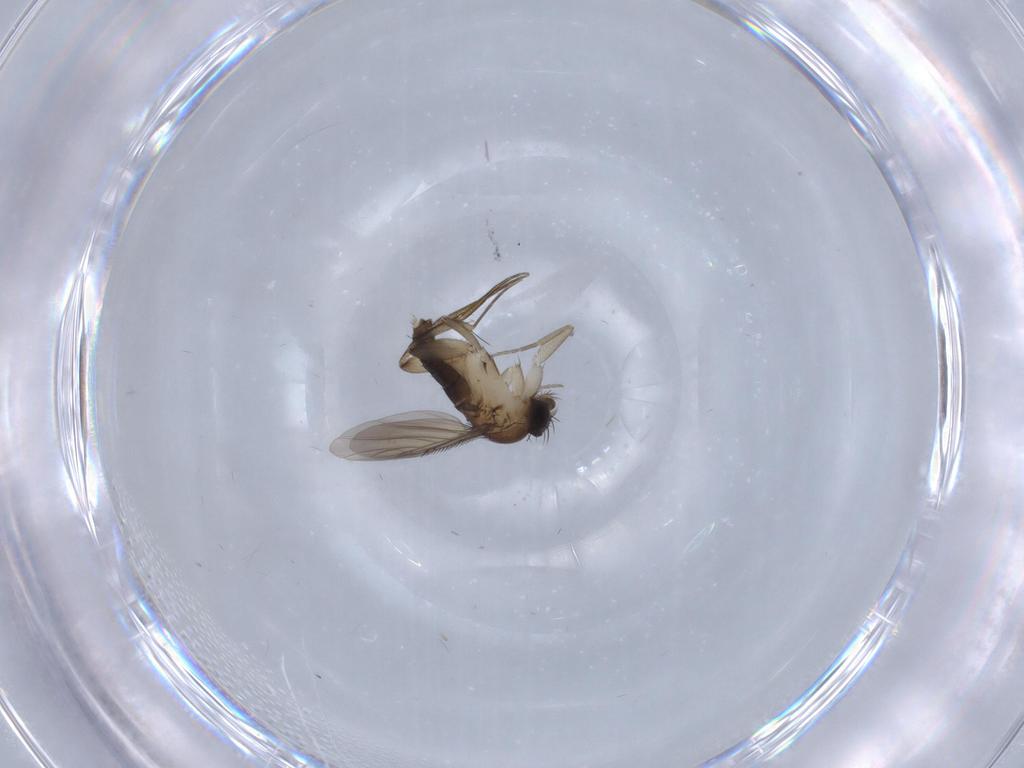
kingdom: Animalia
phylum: Arthropoda
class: Insecta
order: Diptera
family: Phoridae
